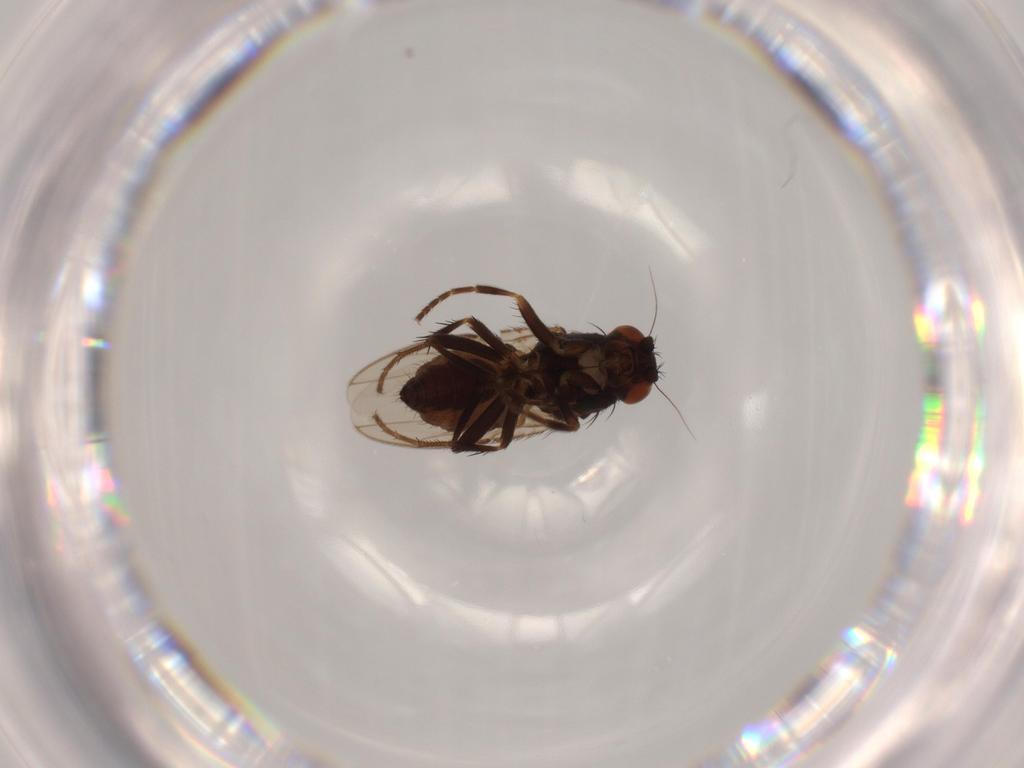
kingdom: Animalia
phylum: Arthropoda
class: Insecta
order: Diptera
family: Sphaeroceridae
